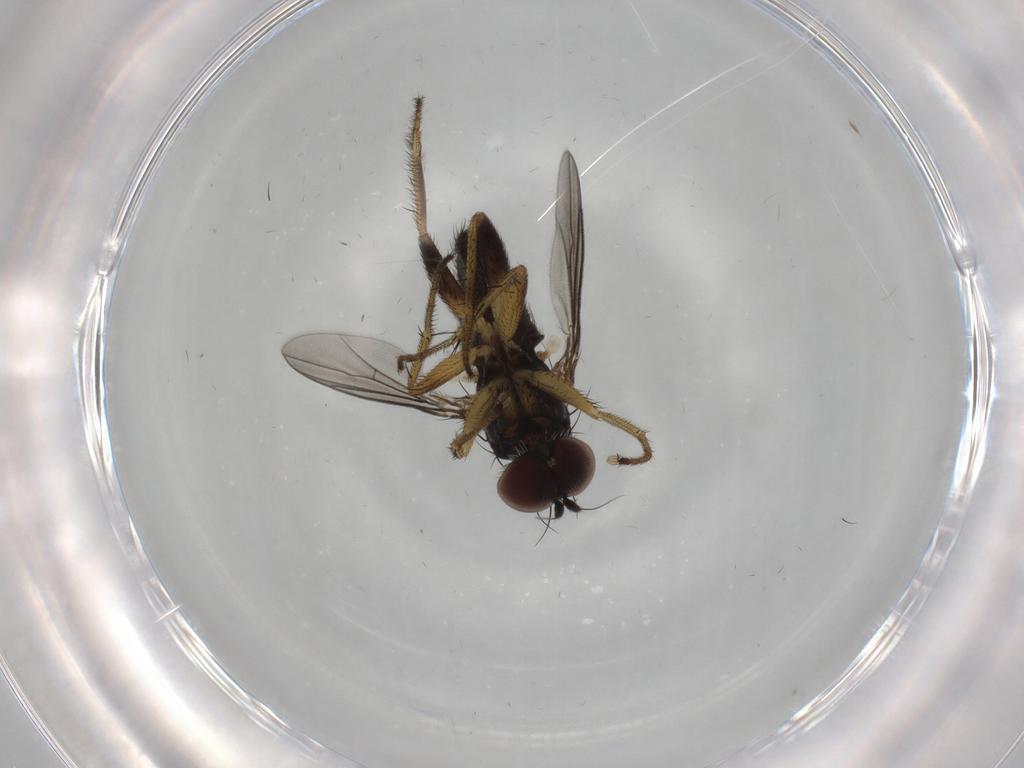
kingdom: Animalia
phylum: Arthropoda
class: Insecta
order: Diptera
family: Dolichopodidae
